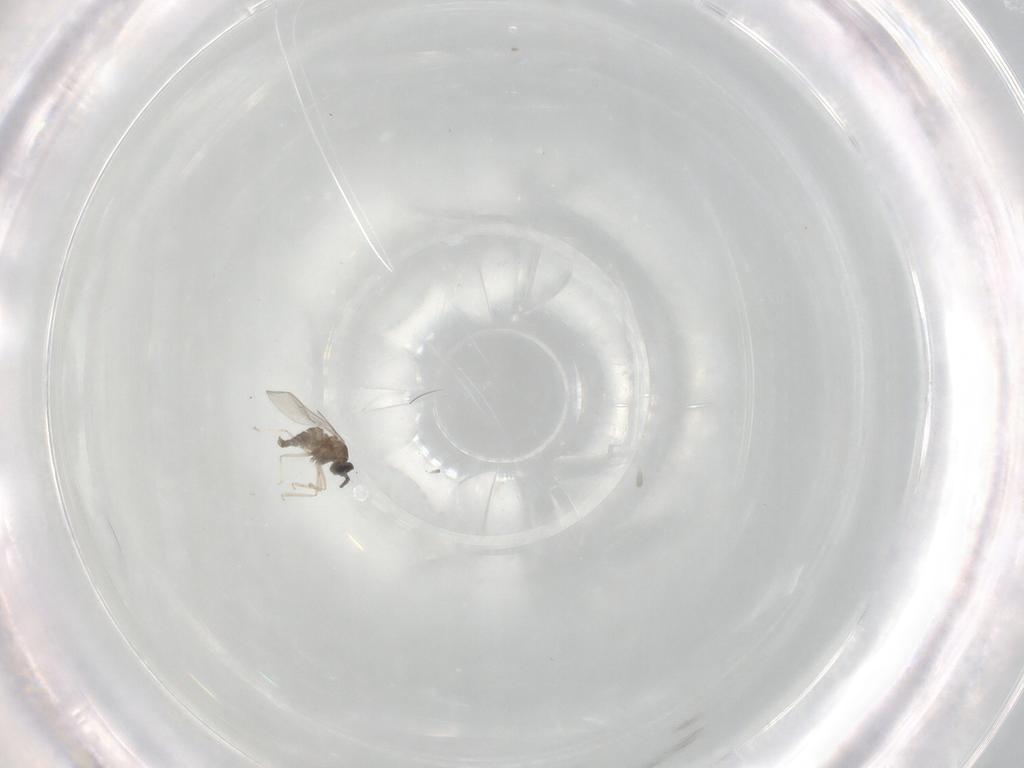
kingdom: Animalia
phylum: Arthropoda
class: Insecta
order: Diptera
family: Cecidomyiidae
